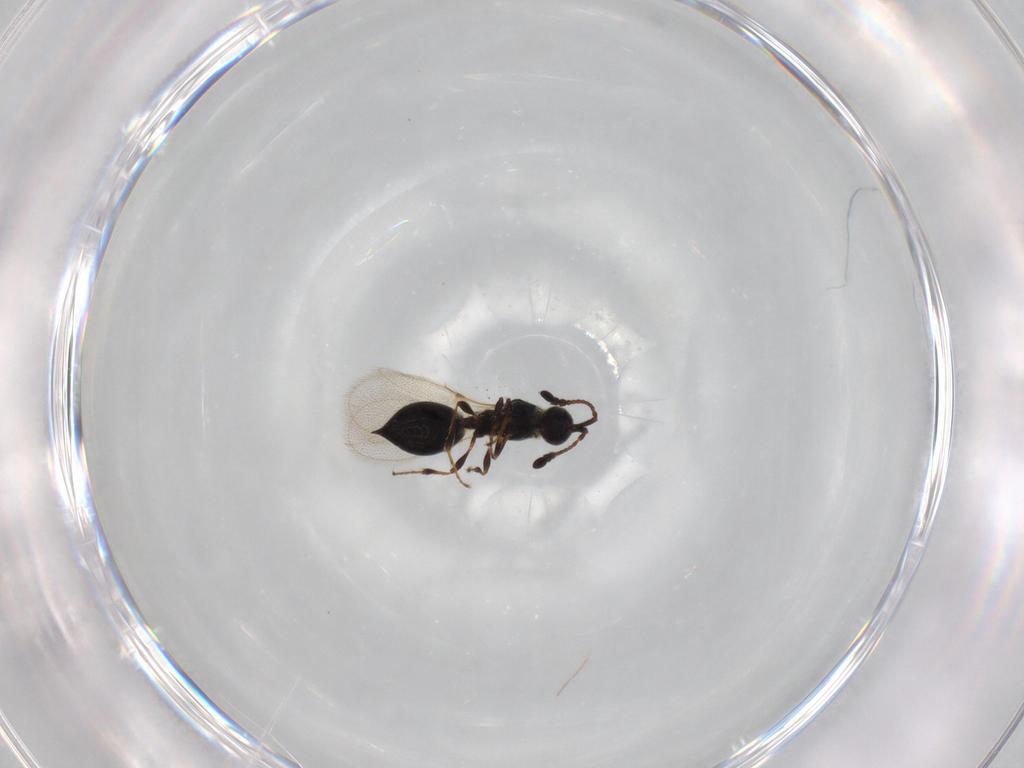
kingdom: Animalia
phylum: Arthropoda
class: Insecta
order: Hymenoptera
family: Diapriidae
